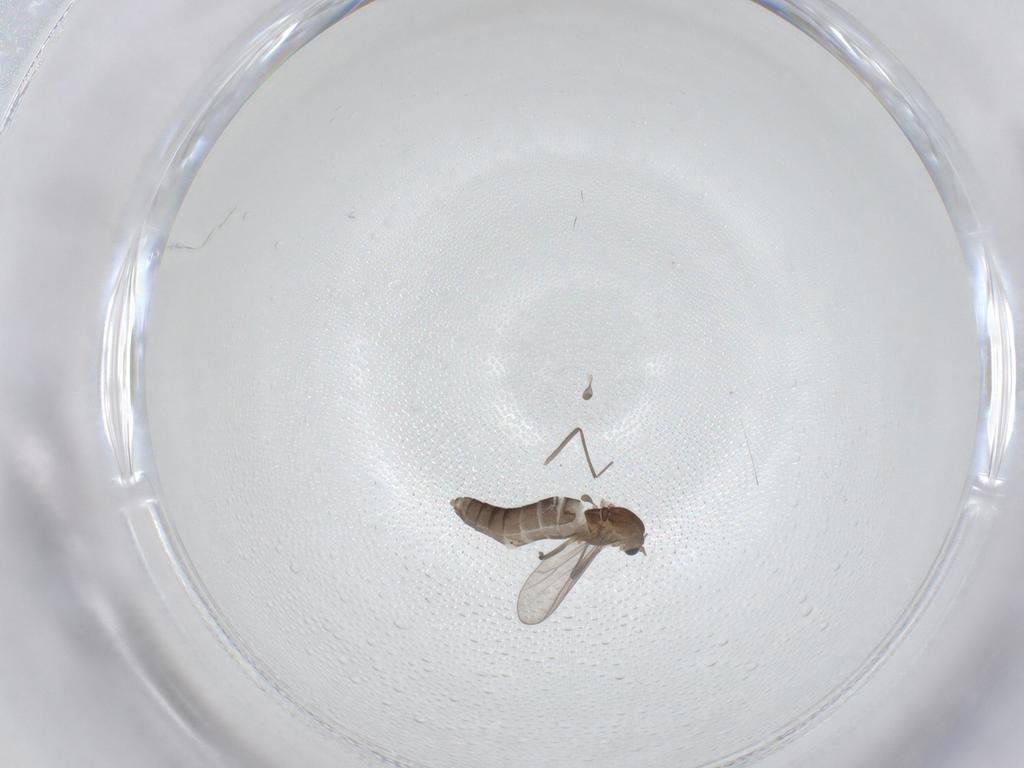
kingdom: Animalia
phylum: Arthropoda
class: Insecta
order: Diptera
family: Chironomidae
